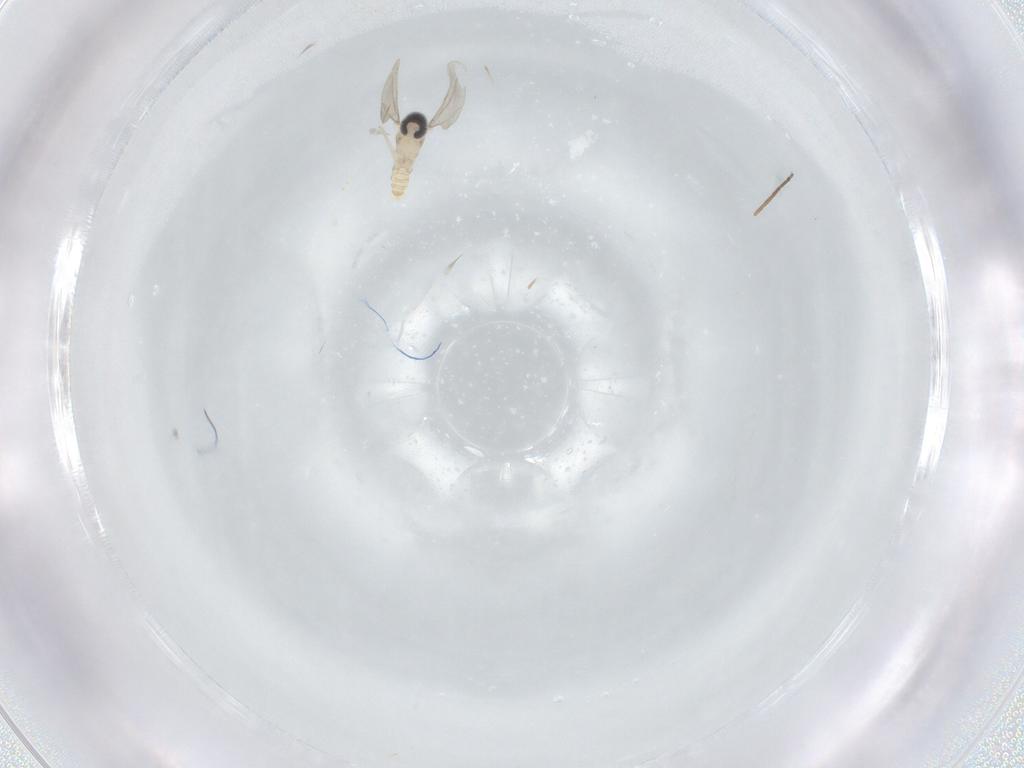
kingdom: Animalia
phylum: Arthropoda
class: Insecta
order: Diptera
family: Cecidomyiidae
